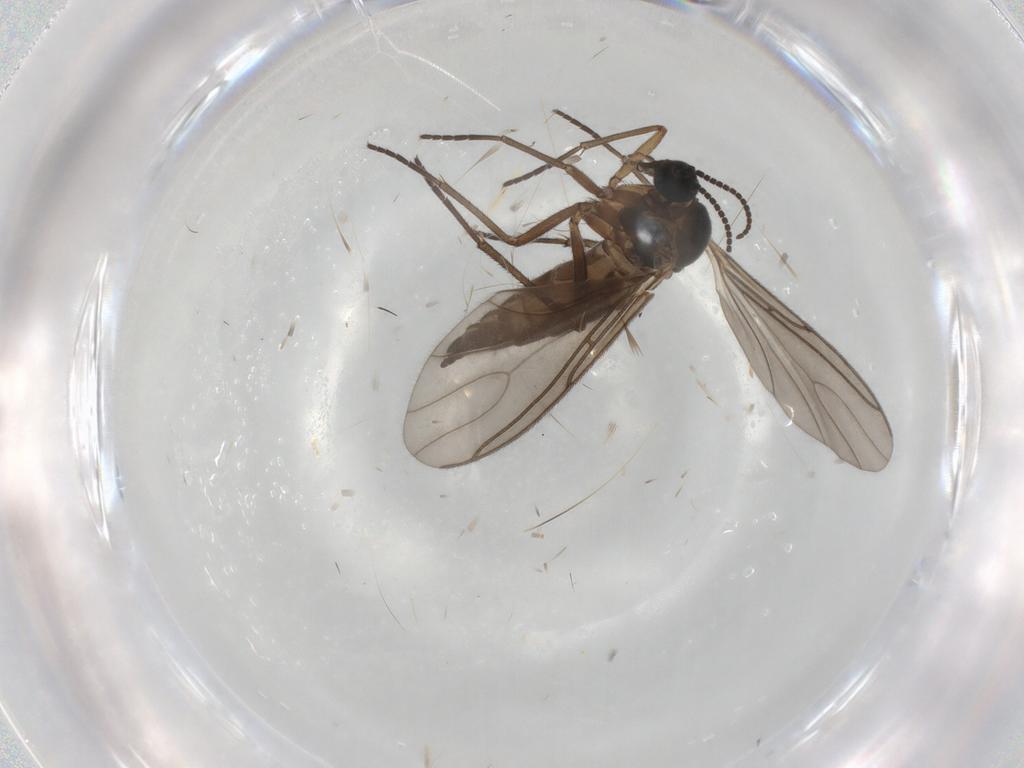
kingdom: Animalia
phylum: Arthropoda
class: Insecta
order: Diptera
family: Sciaridae
